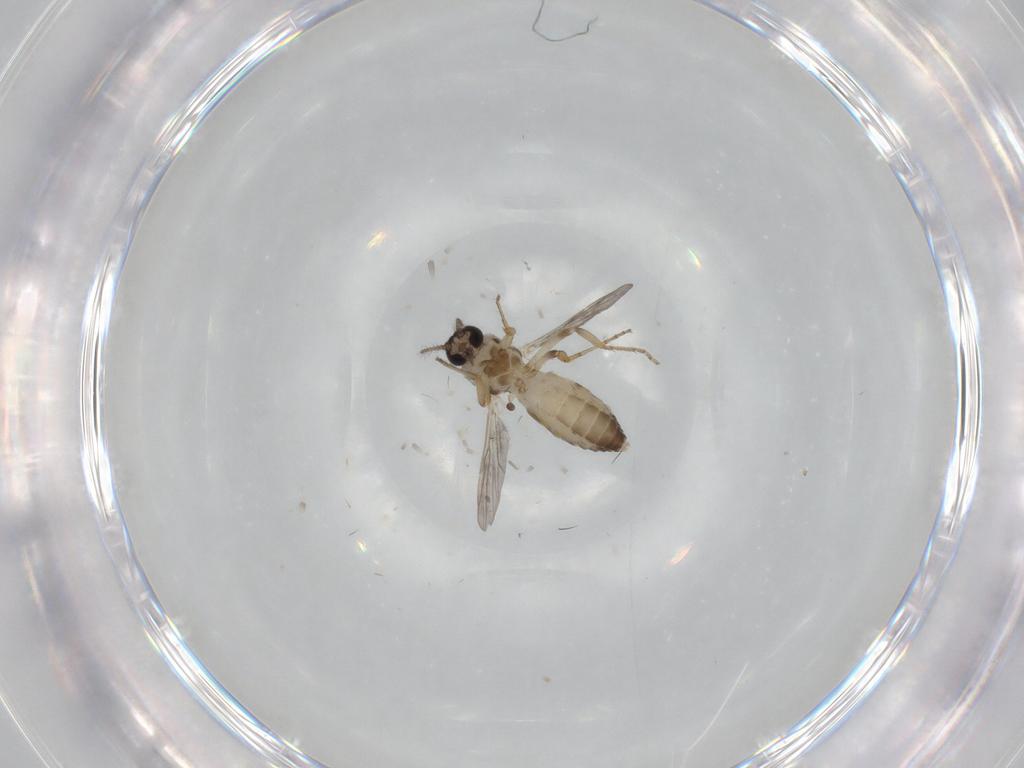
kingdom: Animalia
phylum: Arthropoda
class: Insecta
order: Diptera
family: Ceratopogonidae
